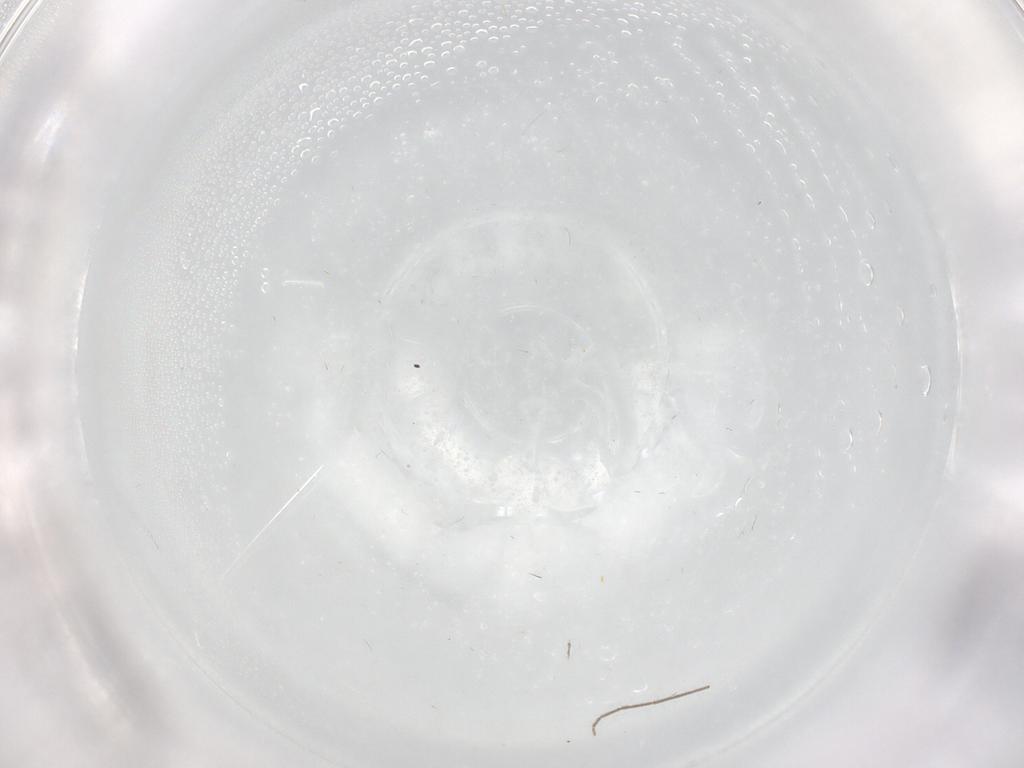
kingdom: Animalia
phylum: Arthropoda
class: Insecta
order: Diptera
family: Chironomidae
